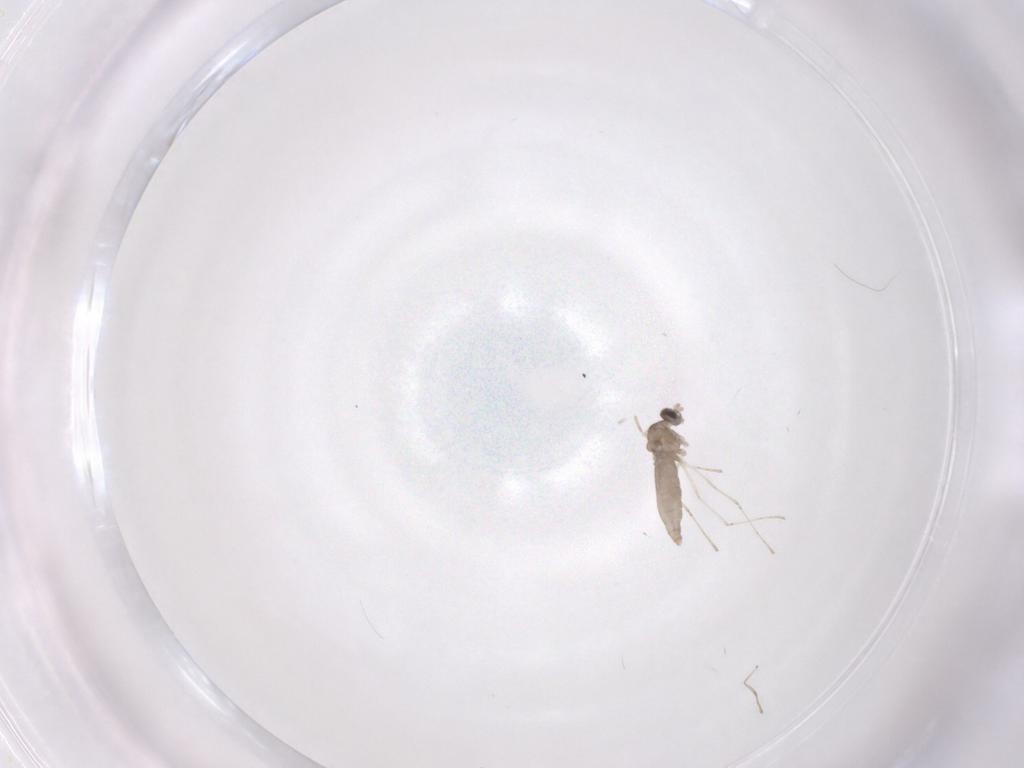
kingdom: Animalia
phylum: Arthropoda
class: Insecta
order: Diptera
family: Cecidomyiidae
